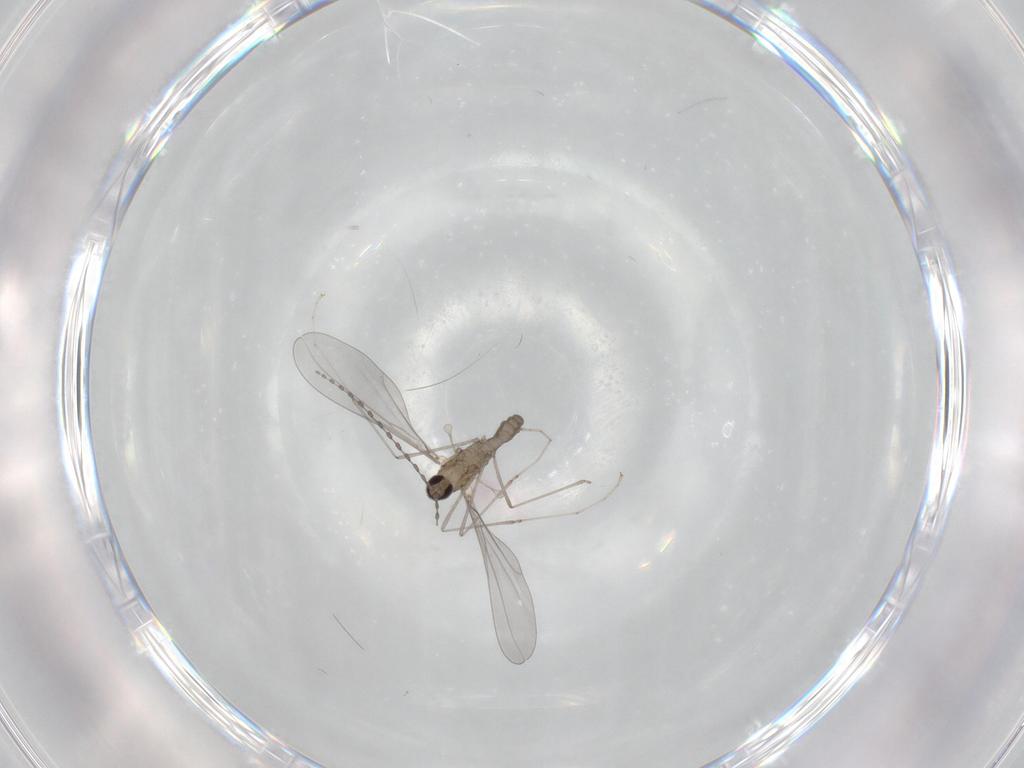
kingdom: Animalia
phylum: Arthropoda
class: Insecta
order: Diptera
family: Cecidomyiidae
